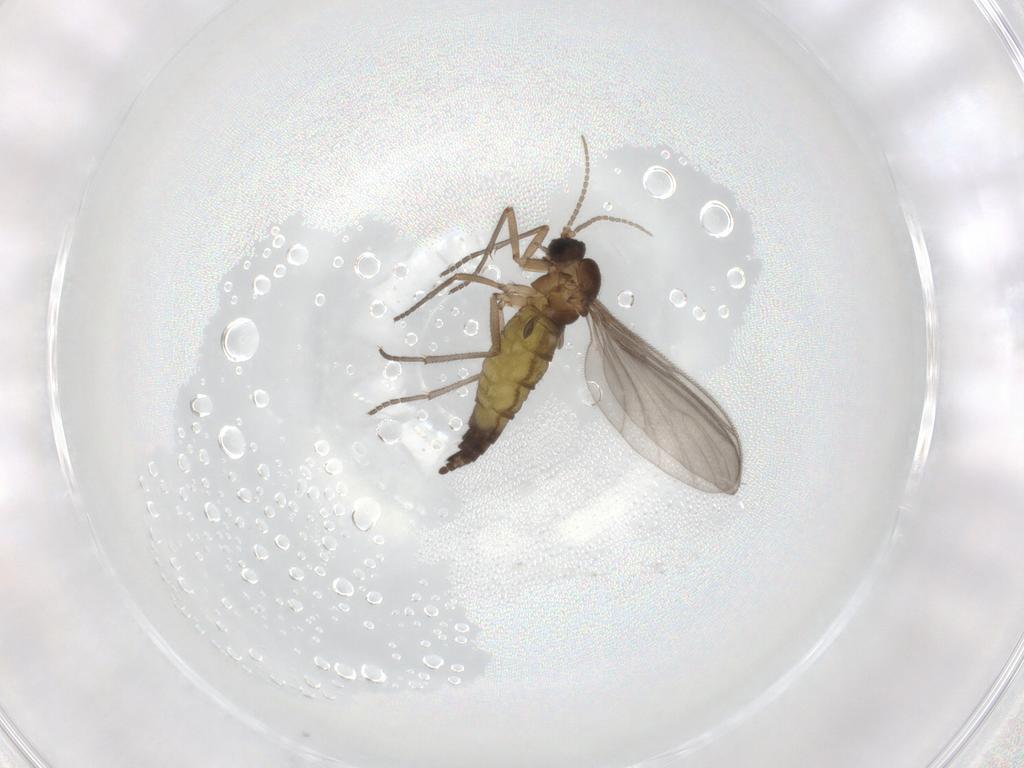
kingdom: Animalia
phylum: Arthropoda
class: Insecta
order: Diptera
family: Sciaridae
